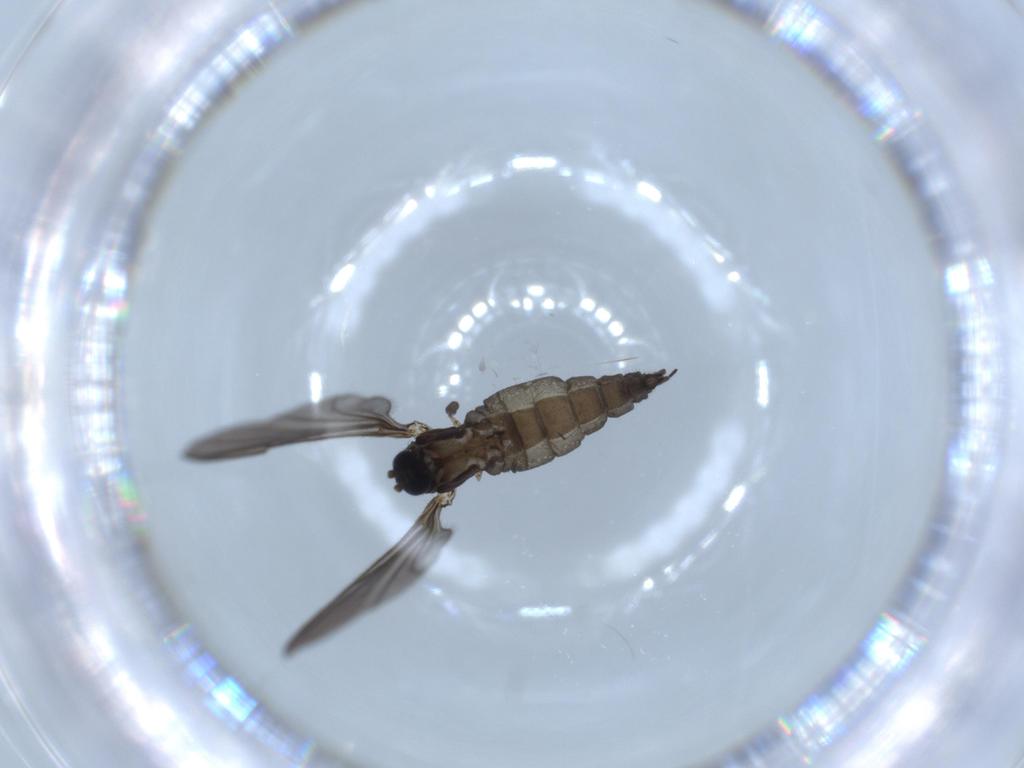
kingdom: Animalia
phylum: Arthropoda
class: Insecta
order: Diptera
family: Sciaridae
